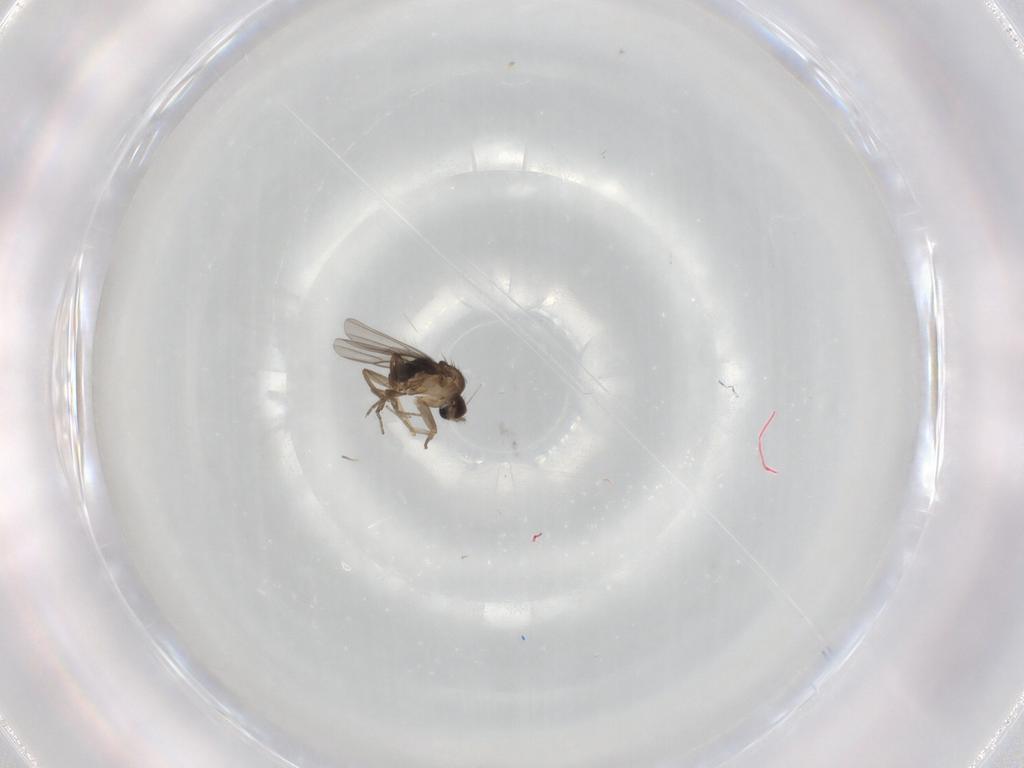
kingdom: Animalia
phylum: Arthropoda
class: Insecta
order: Diptera
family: Phoridae
